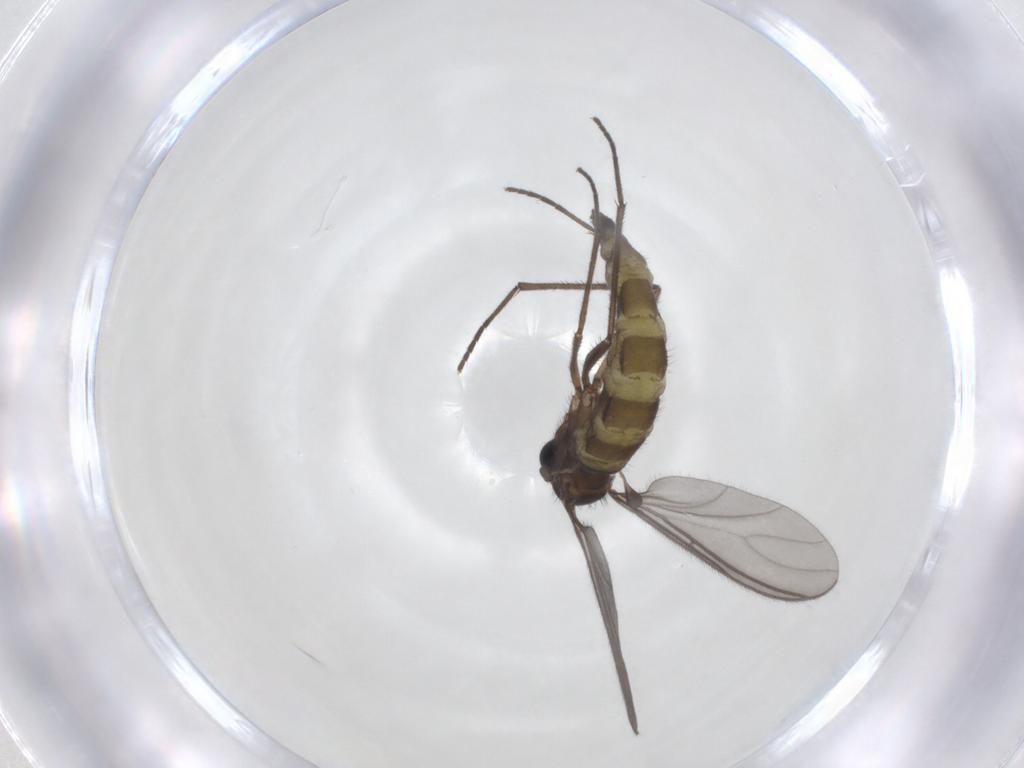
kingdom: Animalia
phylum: Arthropoda
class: Insecta
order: Diptera
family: Sciaridae
